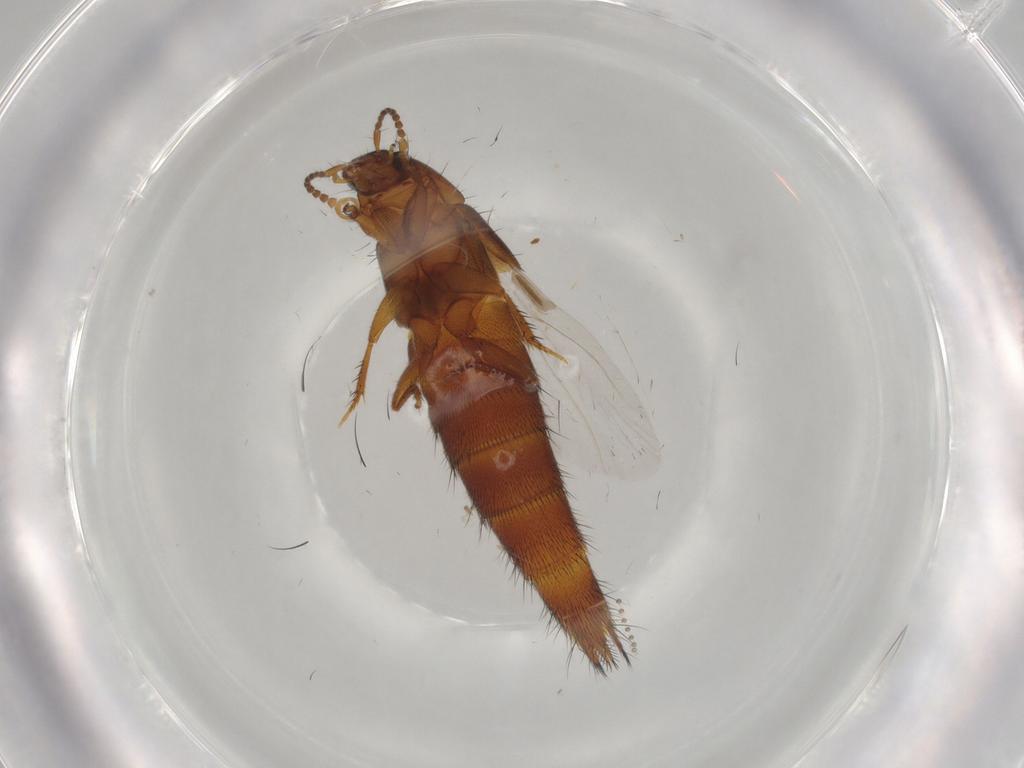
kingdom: Animalia
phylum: Arthropoda
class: Insecta
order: Coleoptera
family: Staphylinidae
